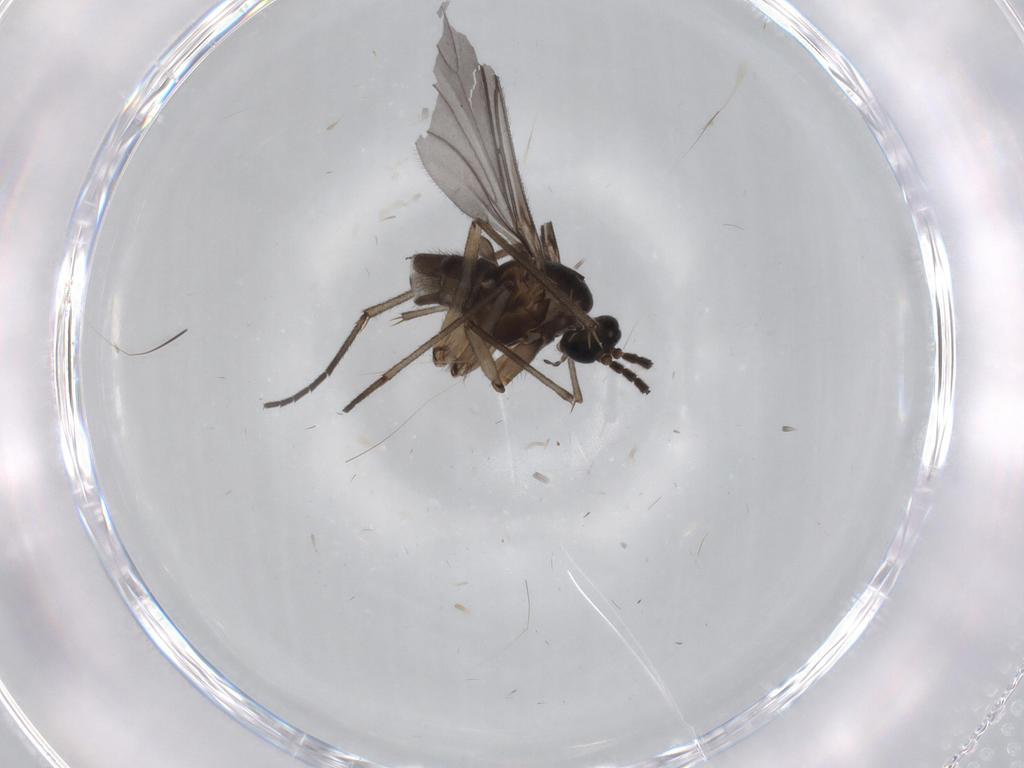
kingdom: Animalia
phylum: Arthropoda
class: Insecta
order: Diptera
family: Sciaridae
